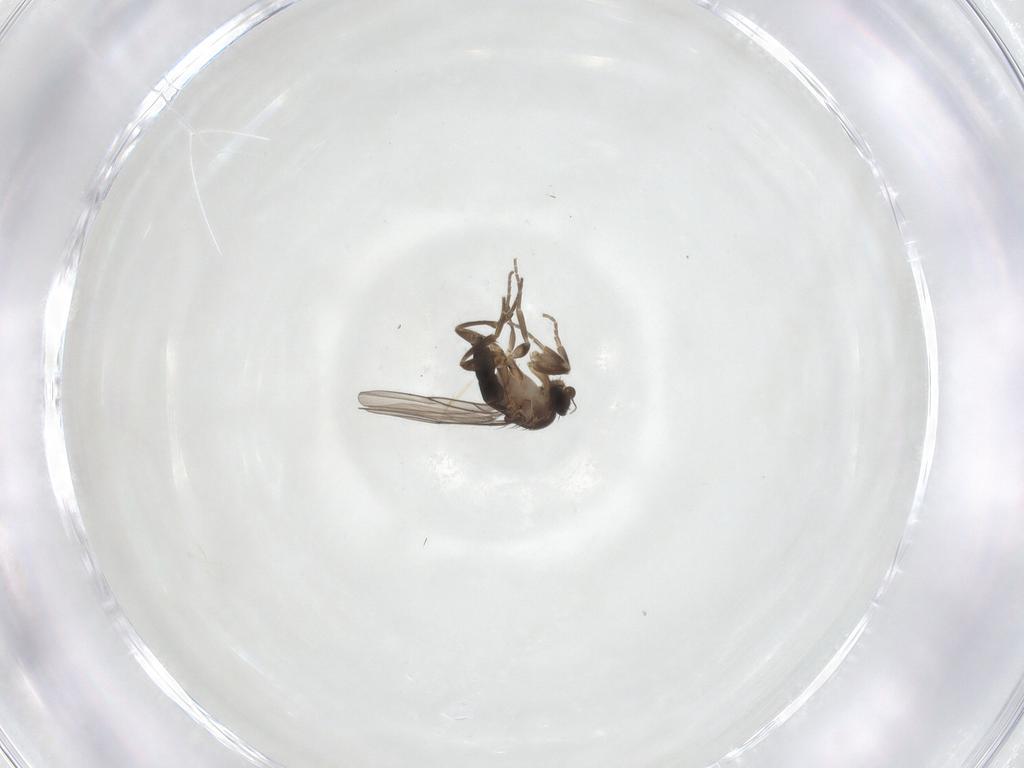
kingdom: Animalia
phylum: Arthropoda
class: Insecta
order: Diptera
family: Phoridae
